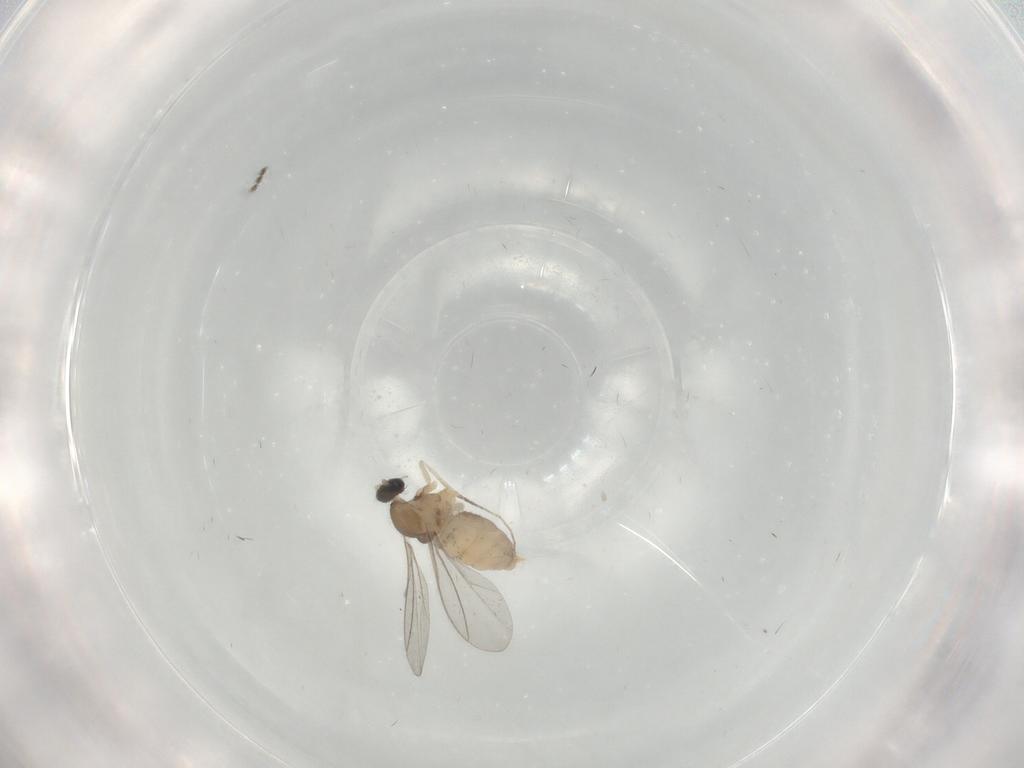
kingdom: Animalia
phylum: Arthropoda
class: Insecta
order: Diptera
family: Cecidomyiidae
